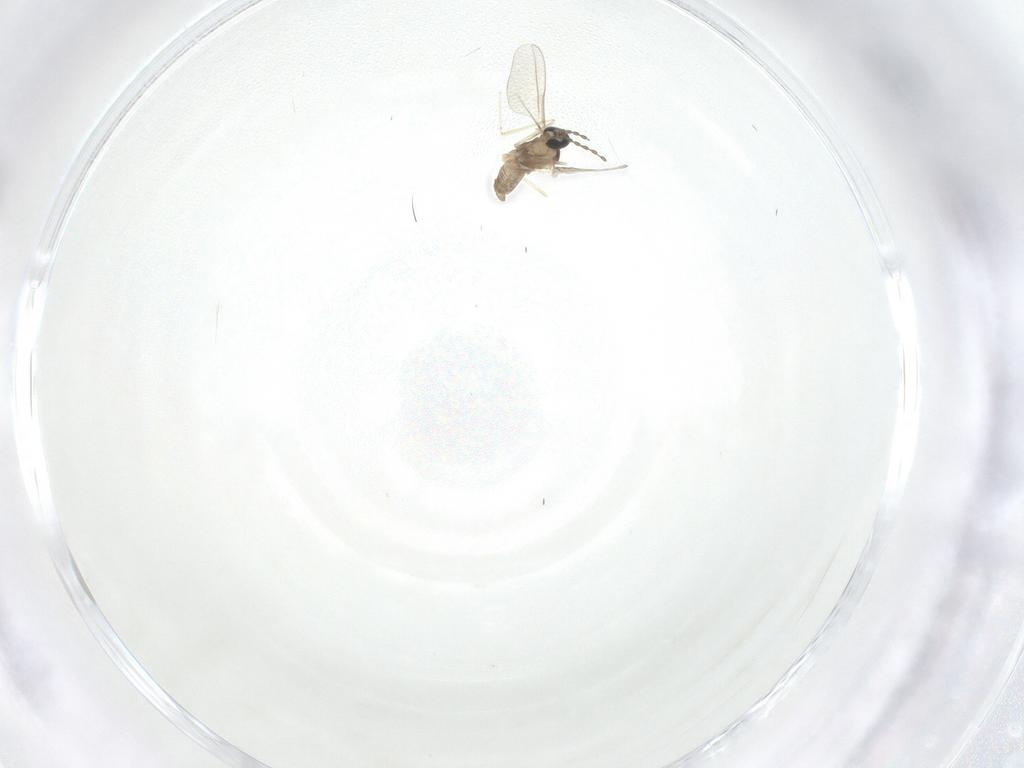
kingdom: Animalia
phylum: Arthropoda
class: Insecta
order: Diptera
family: Cecidomyiidae
